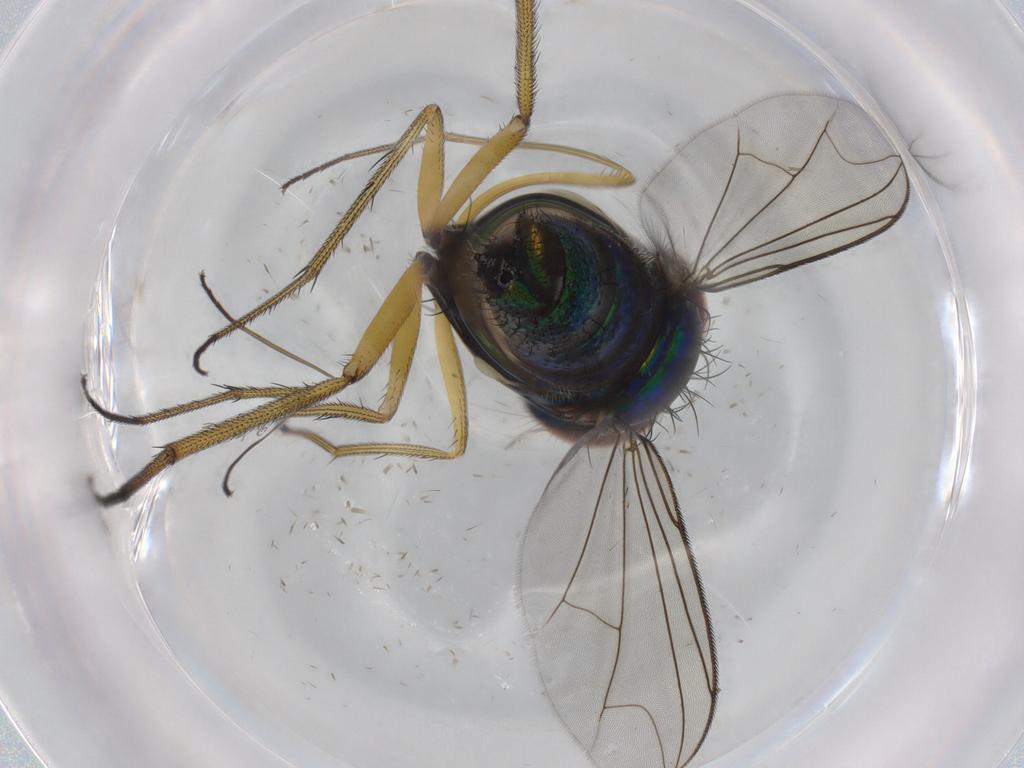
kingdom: Animalia
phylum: Arthropoda
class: Insecta
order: Diptera
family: Dolichopodidae
